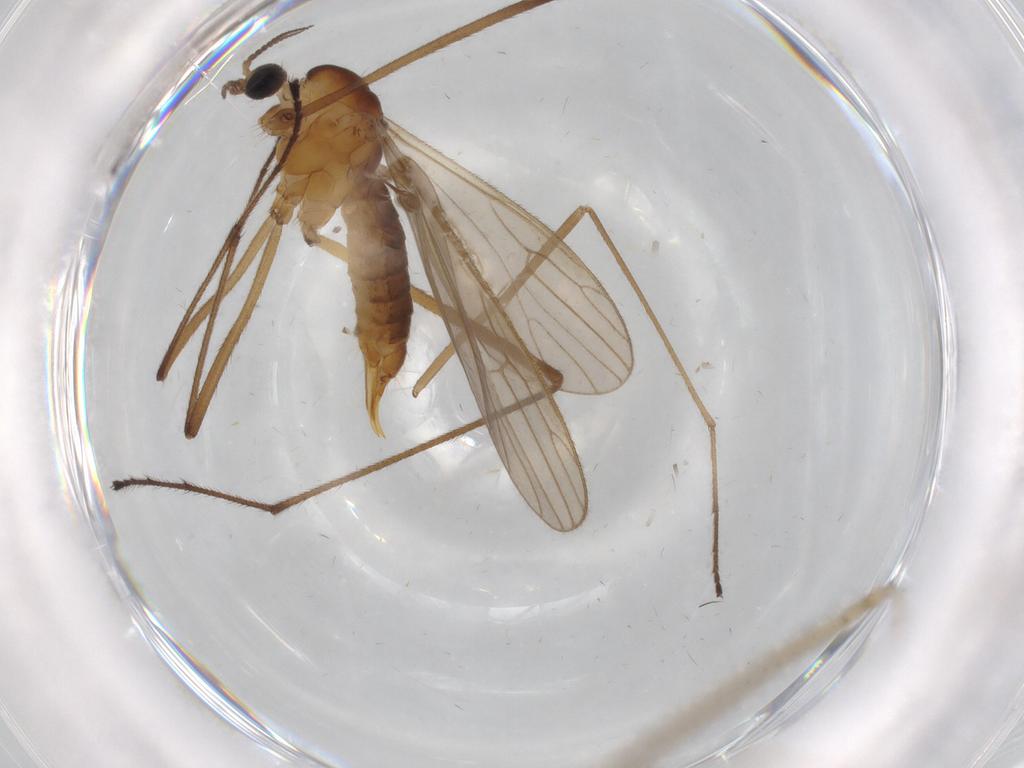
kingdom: Animalia
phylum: Arthropoda
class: Insecta
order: Diptera
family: Limoniidae
